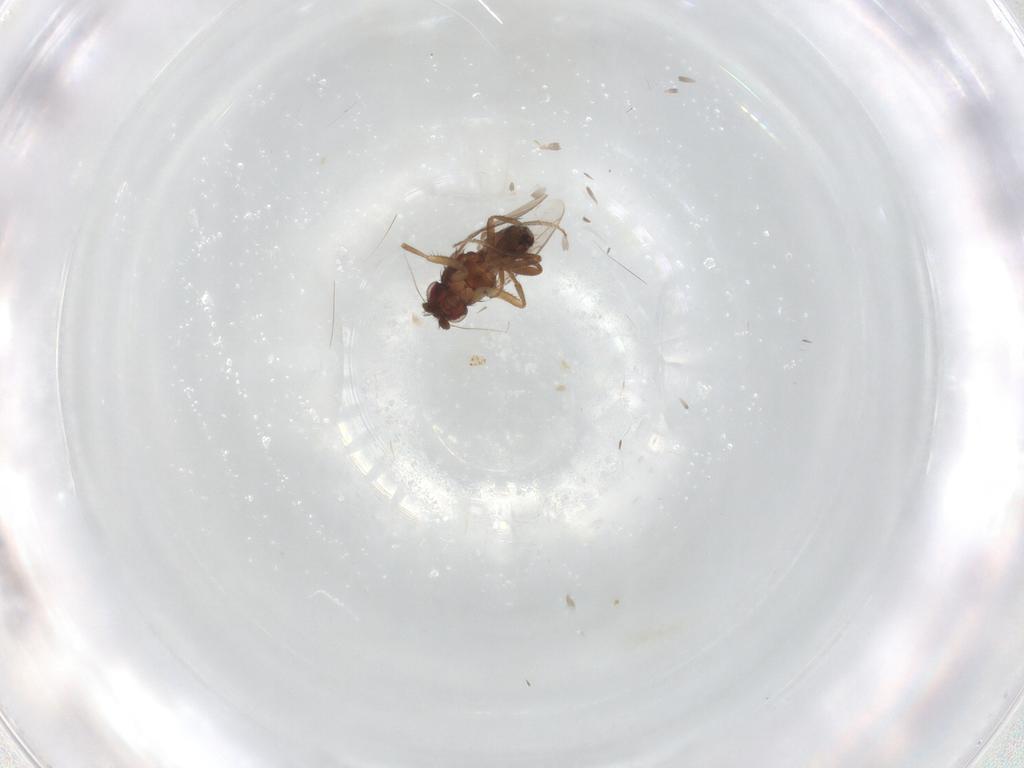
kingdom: Animalia
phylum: Arthropoda
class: Insecta
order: Diptera
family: Sphaeroceridae
